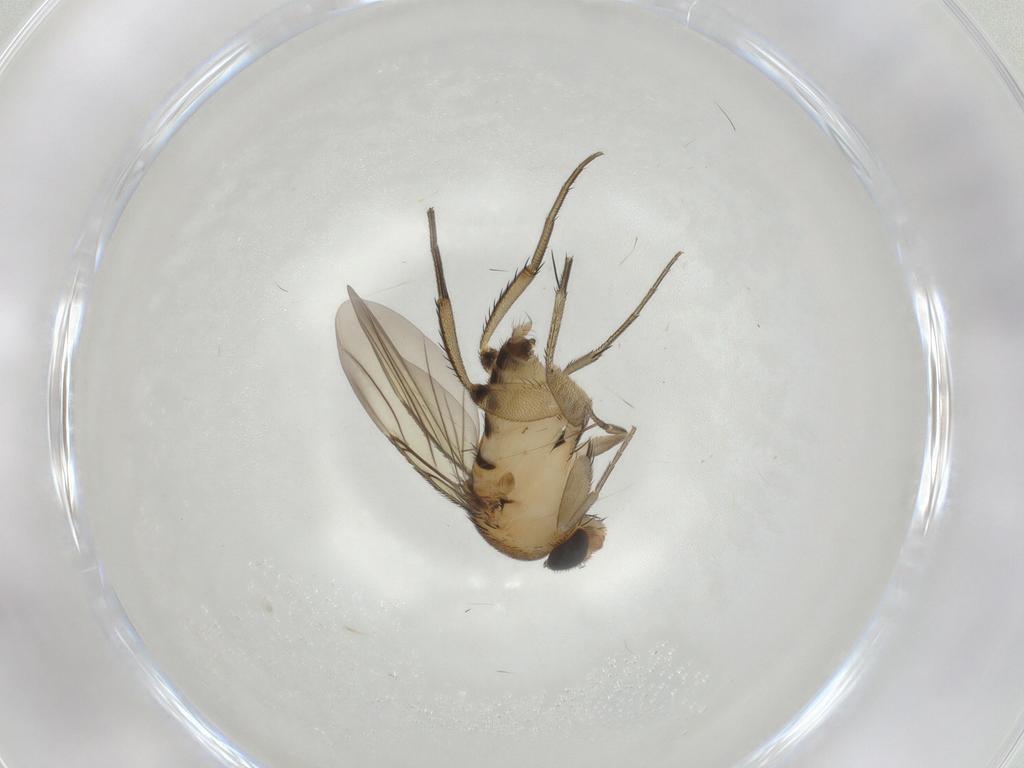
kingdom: Animalia
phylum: Arthropoda
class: Insecta
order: Diptera
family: Phoridae
